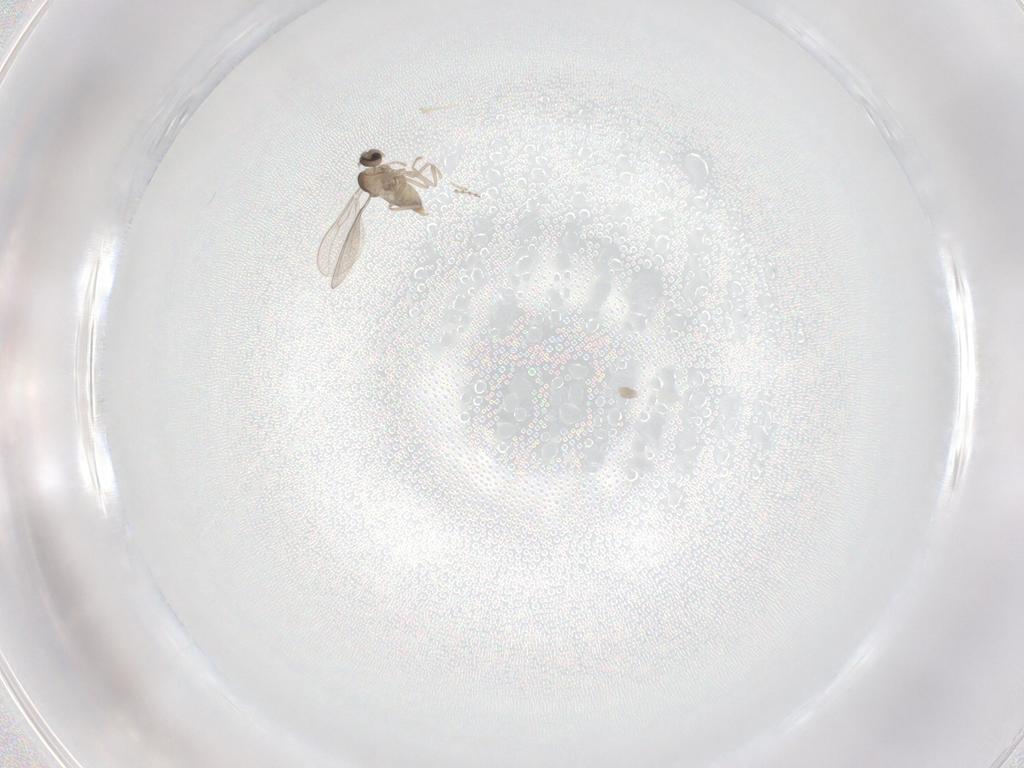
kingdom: Animalia
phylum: Arthropoda
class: Insecta
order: Diptera
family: Cecidomyiidae
